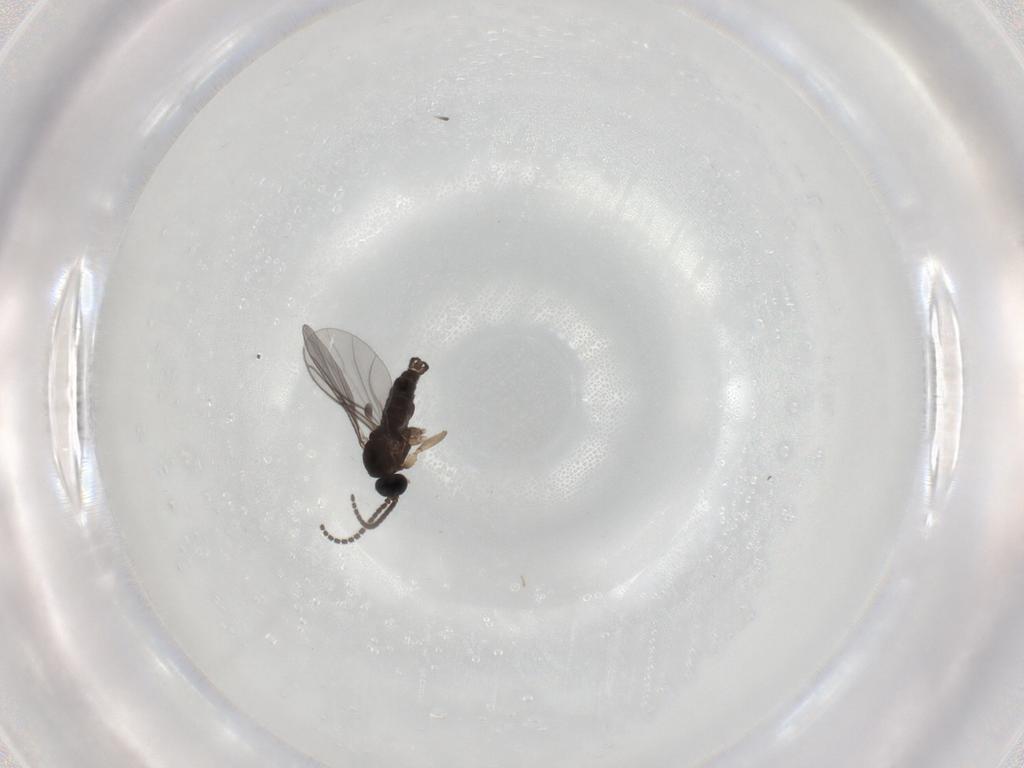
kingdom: Animalia
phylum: Arthropoda
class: Insecta
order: Diptera
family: Sciaridae
